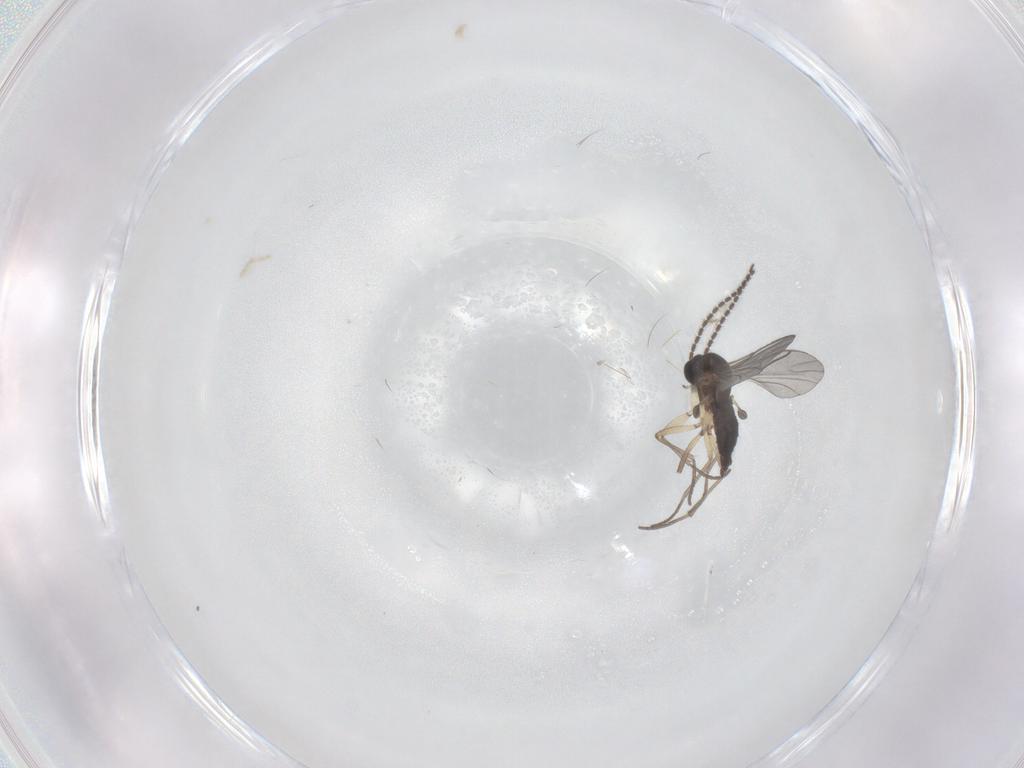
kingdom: Animalia
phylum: Arthropoda
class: Insecta
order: Diptera
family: Sciaridae
